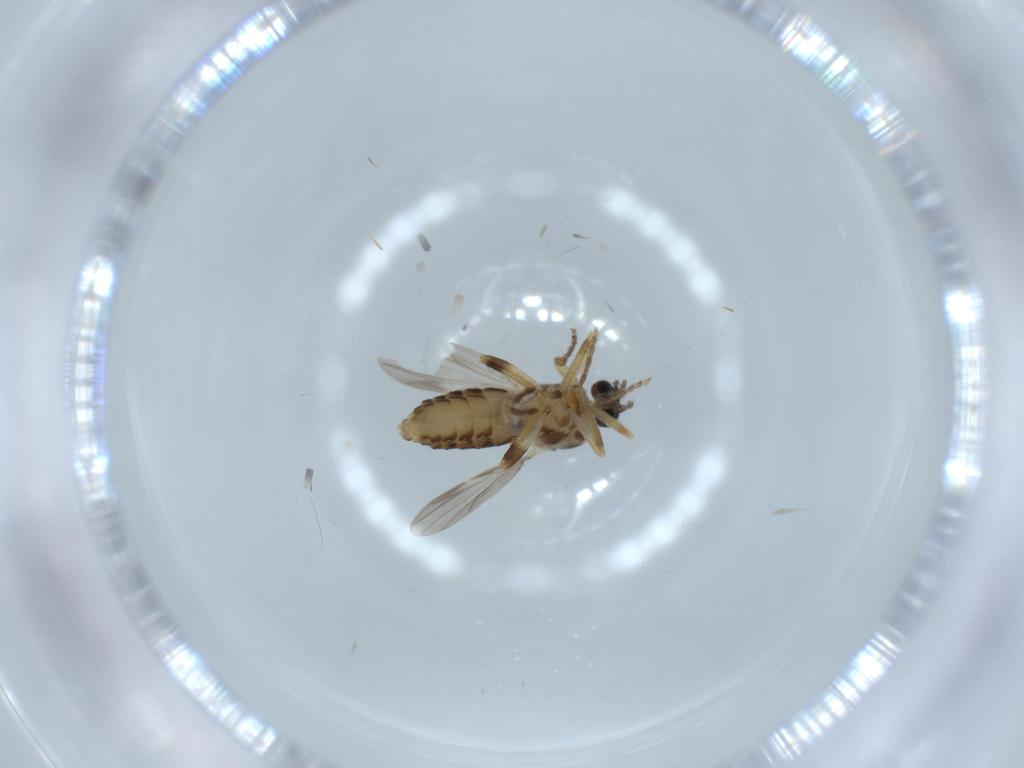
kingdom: Animalia
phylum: Arthropoda
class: Insecta
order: Diptera
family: Ceratopogonidae
